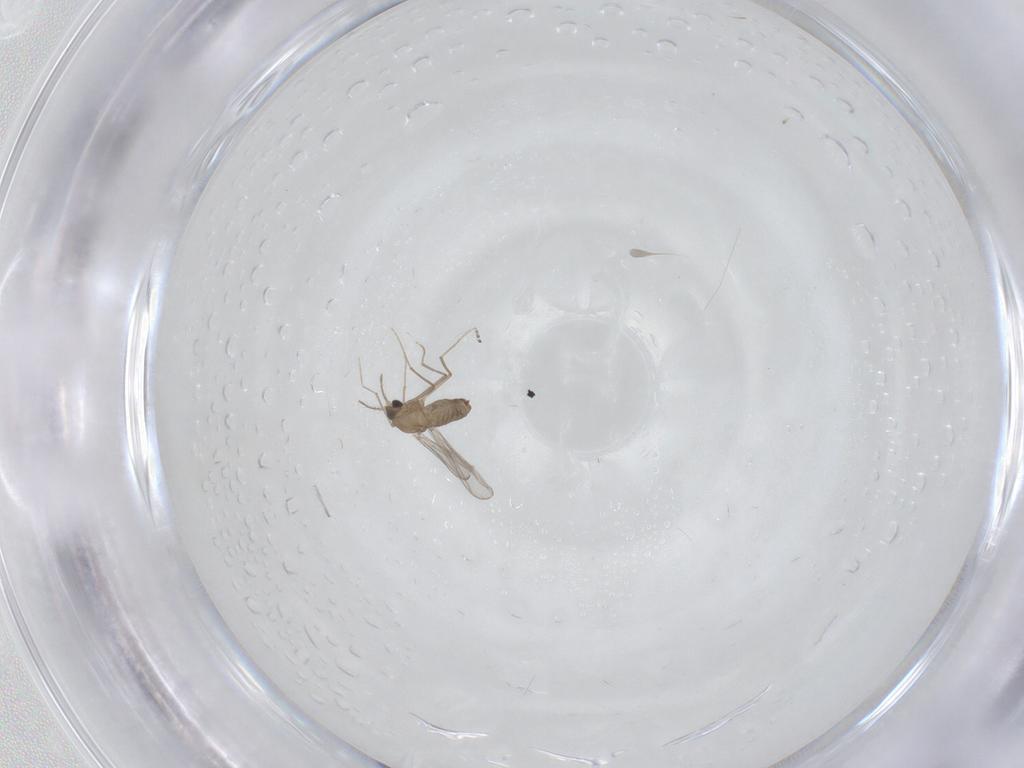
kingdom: Animalia
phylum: Arthropoda
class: Insecta
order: Diptera
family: Chironomidae
